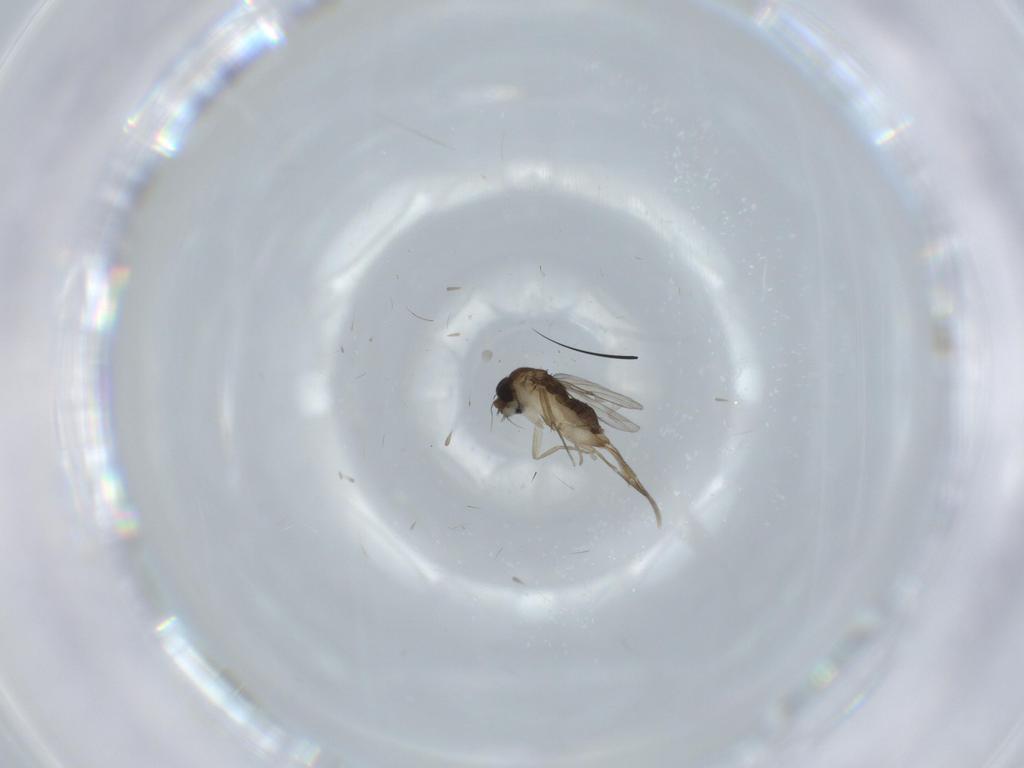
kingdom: Animalia
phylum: Arthropoda
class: Insecta
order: Diptera
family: Phoridae
